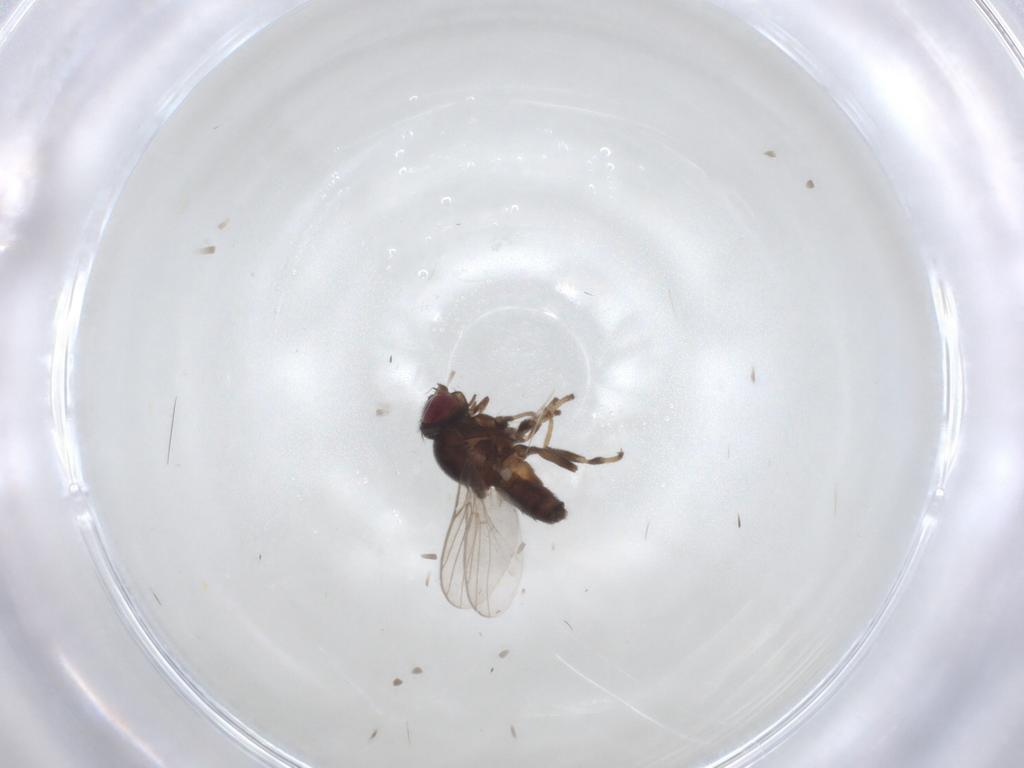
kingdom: Animalia
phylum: Arthropoda
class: Insecta
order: Diptera
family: Chloropidae
